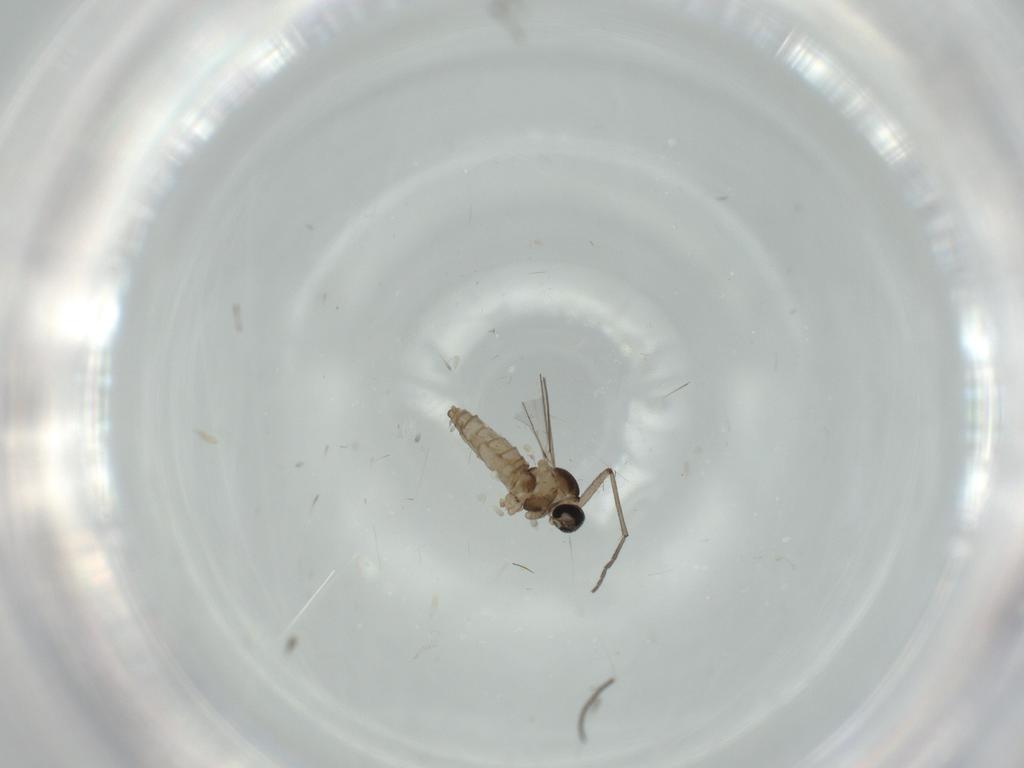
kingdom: Animalia
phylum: Arthropoda
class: Insecta
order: Diptera
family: Cecidomyiidae
